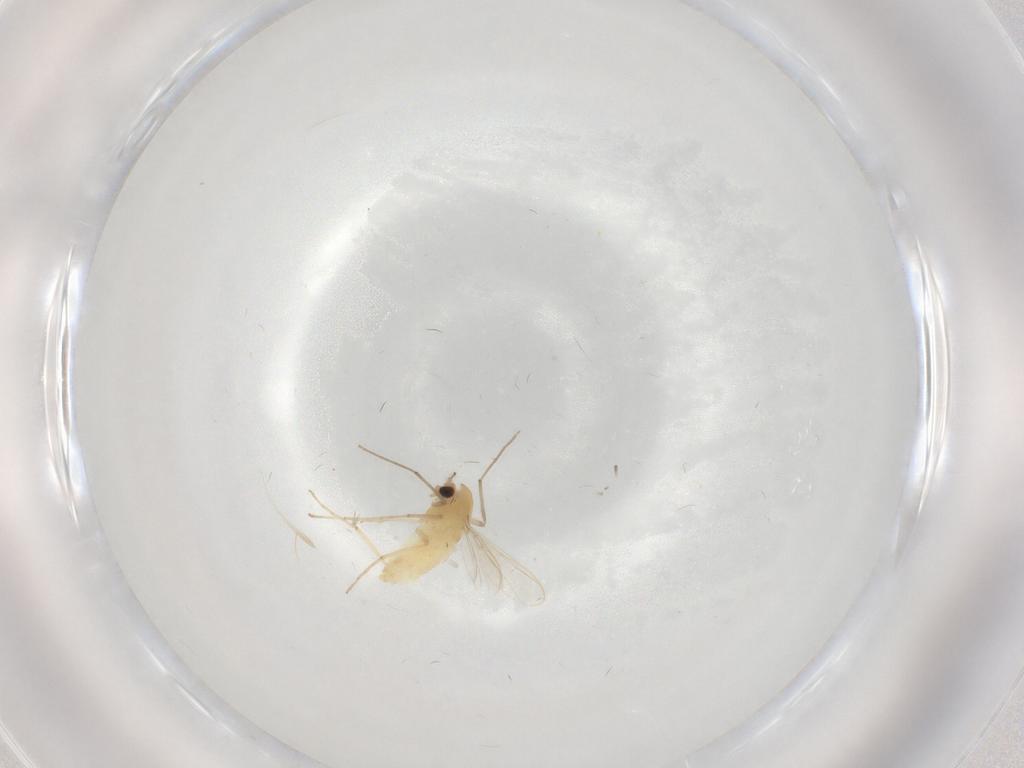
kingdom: Animalia
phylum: Arthropoda
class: Insecta
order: Diptera
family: Chironomidae
